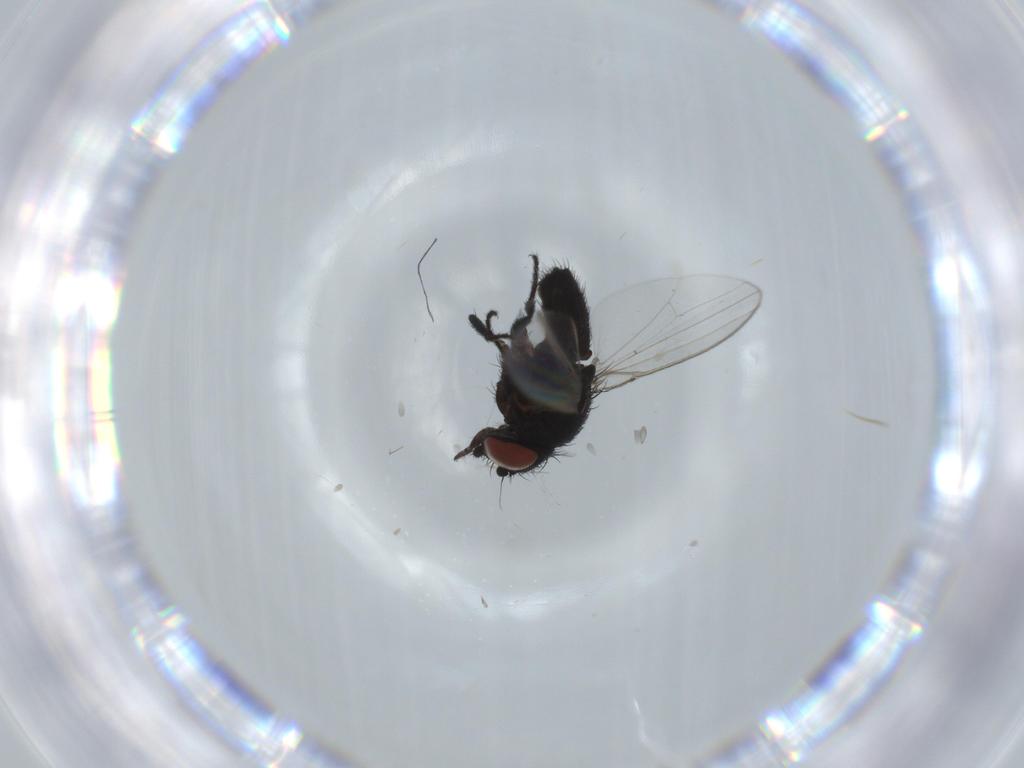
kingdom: Animalia
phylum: Arthropoda
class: Insecta
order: Diptera
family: Milichiidae
